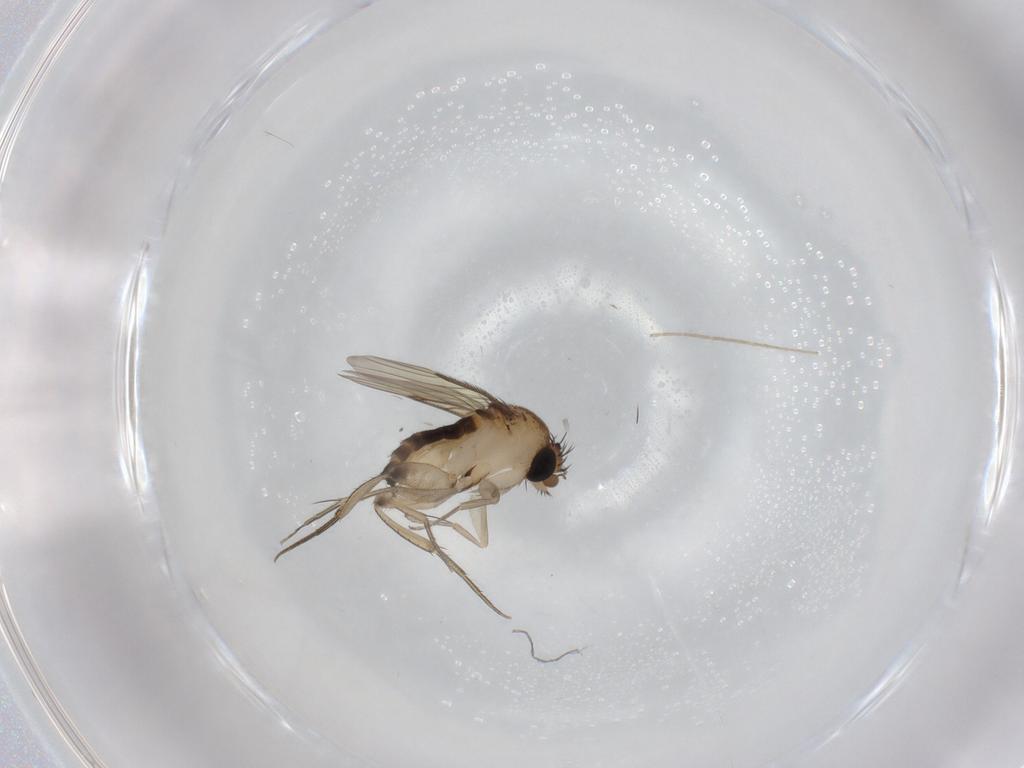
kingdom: Animalia
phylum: Arthropoda
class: Insecta
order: Diptera
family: Phoridae
